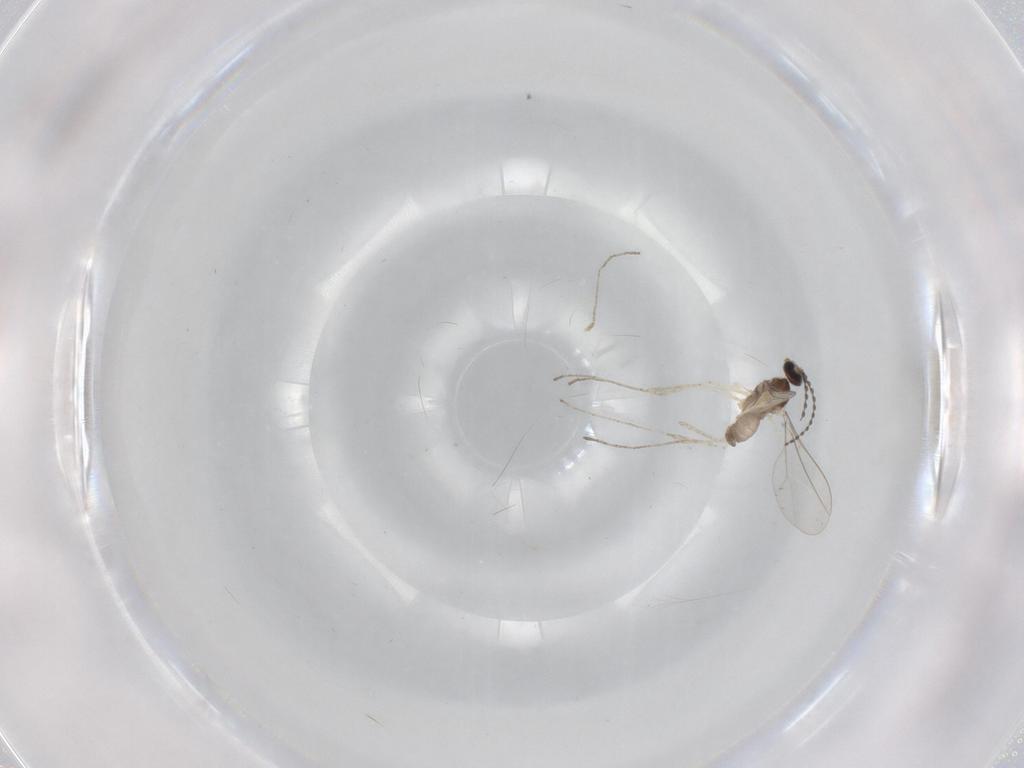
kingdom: Animalia
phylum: Arthropoda
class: Insecta
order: Diptera
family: Cecidomyiidae
